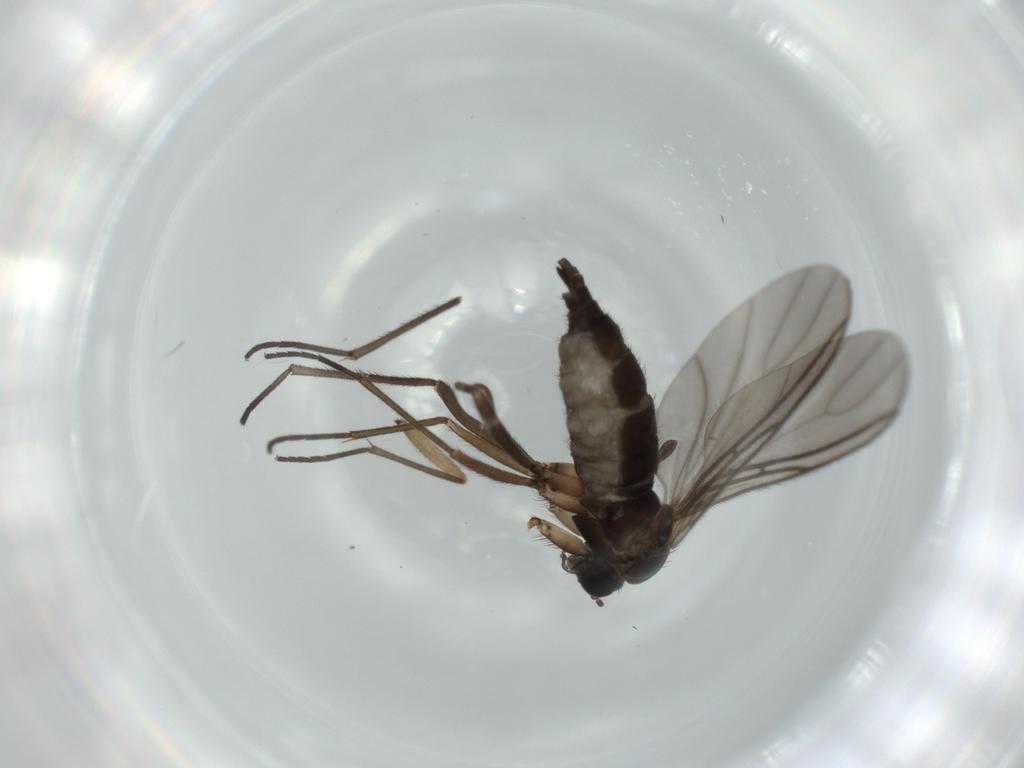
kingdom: Animalia
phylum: Arthropoda
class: Insecta
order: Diptera
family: Sciaridae
